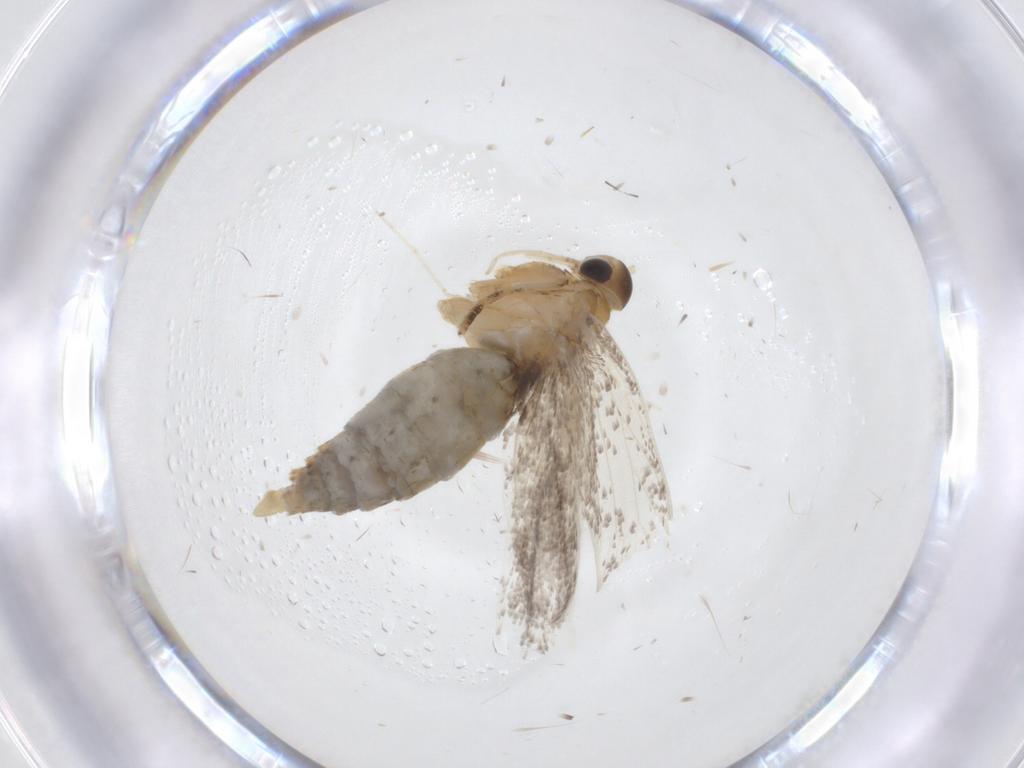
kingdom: Animalia
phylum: Arthropoda
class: Insecta
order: Lepidoptera
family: Oecophoridae
